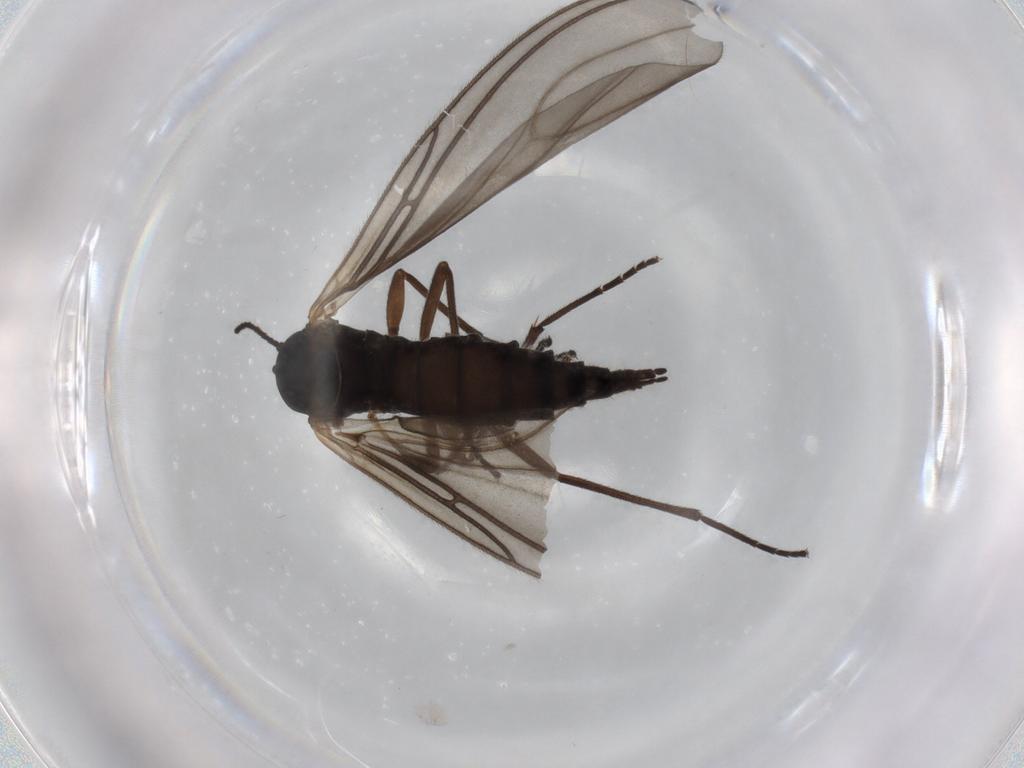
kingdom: Animalia
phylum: Arthropoda
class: Insecta
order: Diptera
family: Sciaridae
